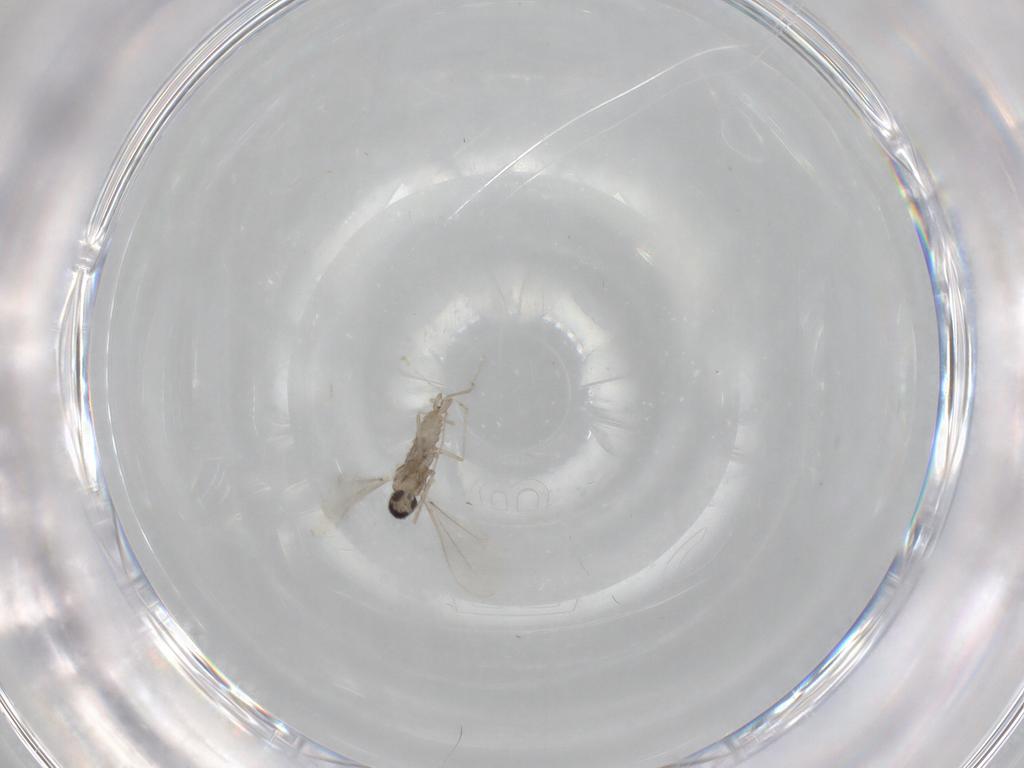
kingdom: Animalia
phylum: Arthropoda
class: Insecta
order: Diptera
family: Cecidomyiidae
